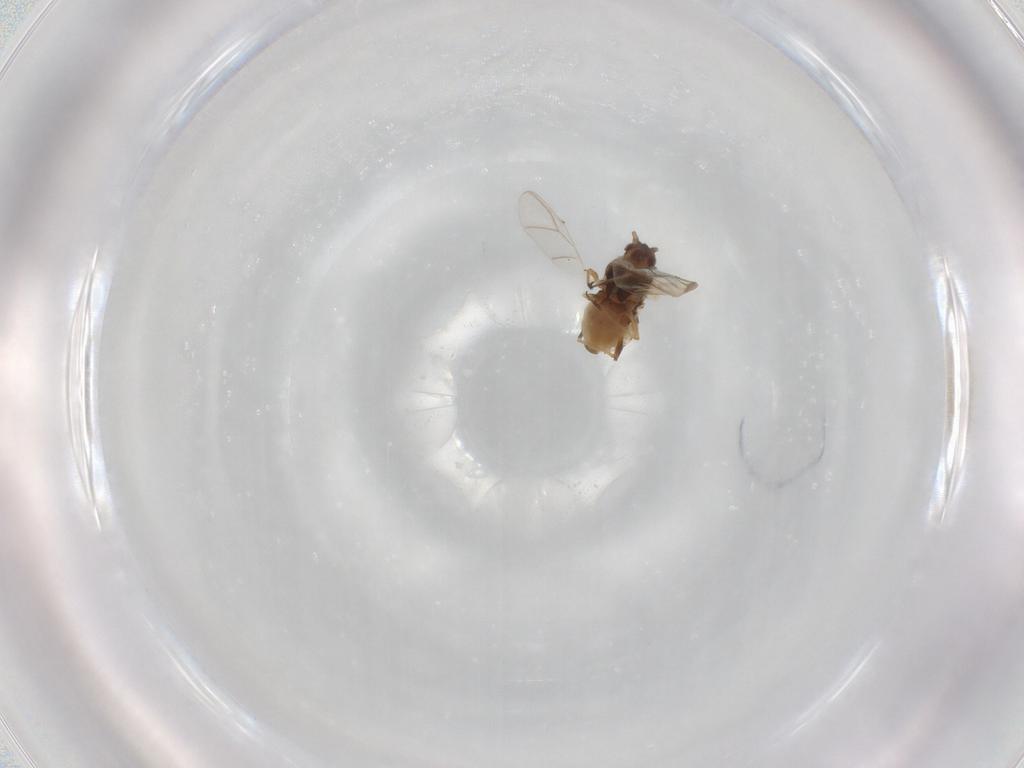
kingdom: Animalia
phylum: Arthropoda
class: Insecta
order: Hemiptera
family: Aphididae
